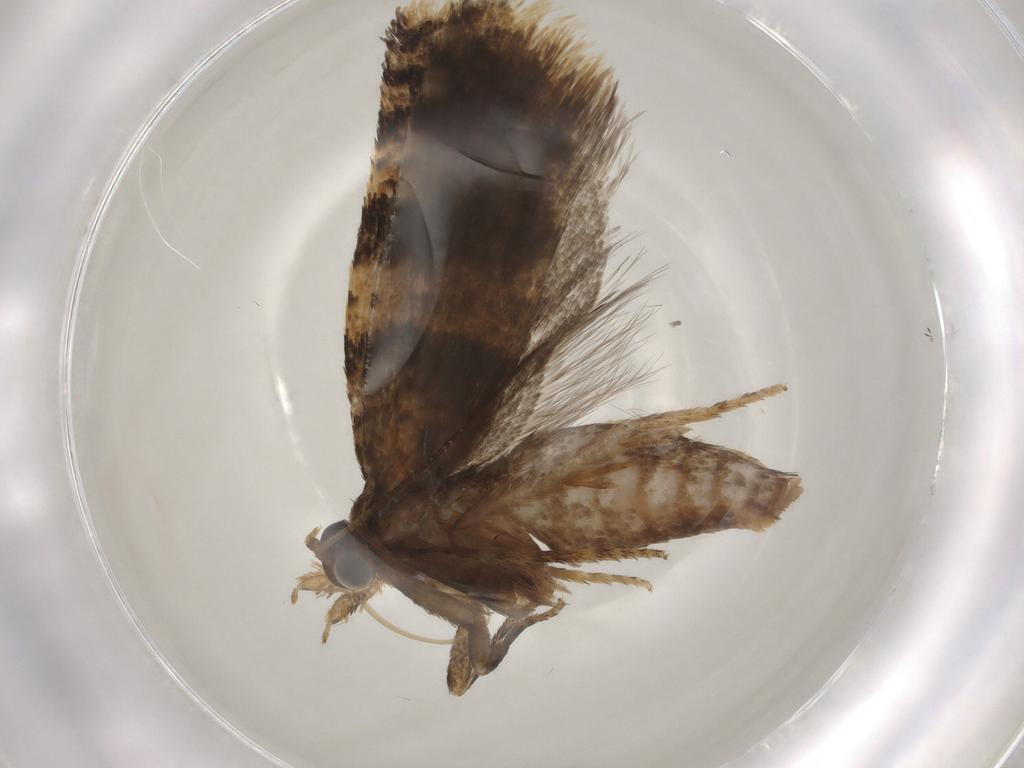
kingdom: Animalia
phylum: Arthropoda
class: Insecta
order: Lepidoptera
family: Tortricidae
